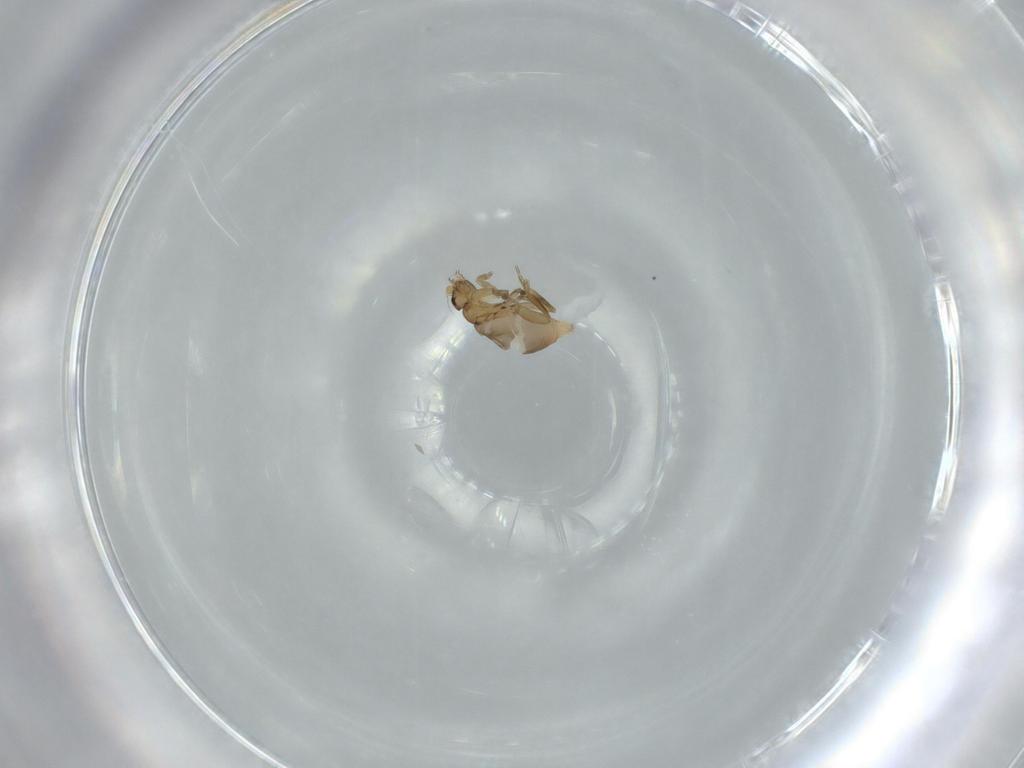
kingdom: Animalia
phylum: Arthropoda
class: Insecta
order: Diptera
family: Phoridae
